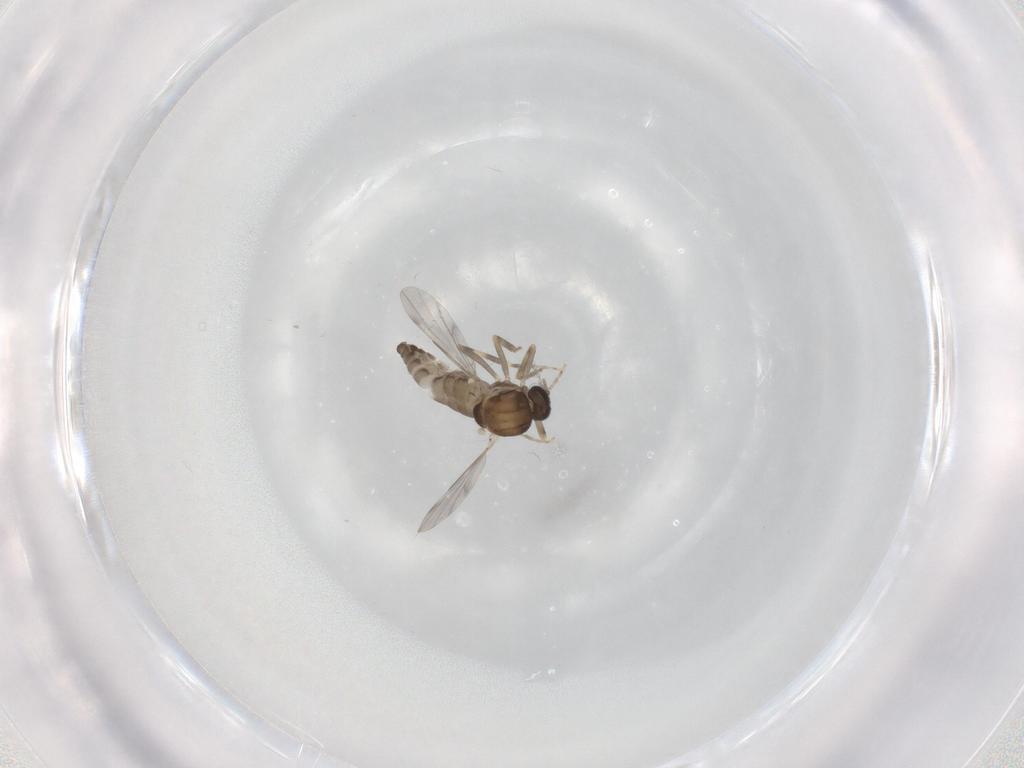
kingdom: Animalia
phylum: Arthropoda
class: Insecta
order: Diptera
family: Ceratopogonidae
